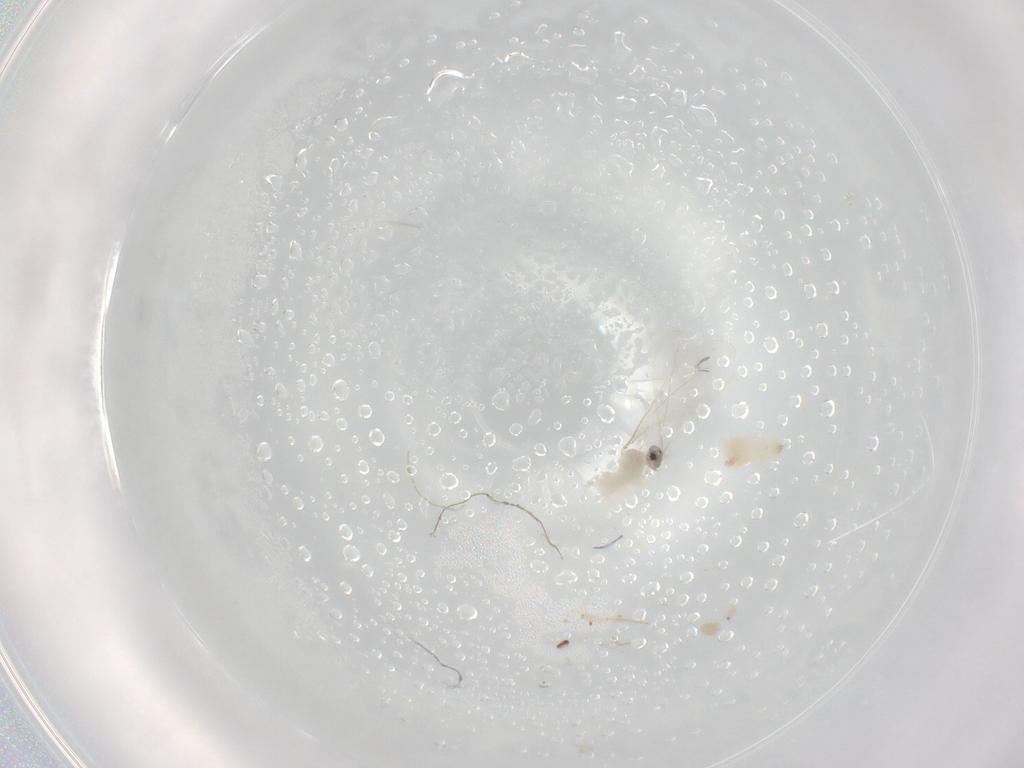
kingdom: Animalia
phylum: Arthropoda
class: Insecta
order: Diptera
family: Cecidomyiidae
